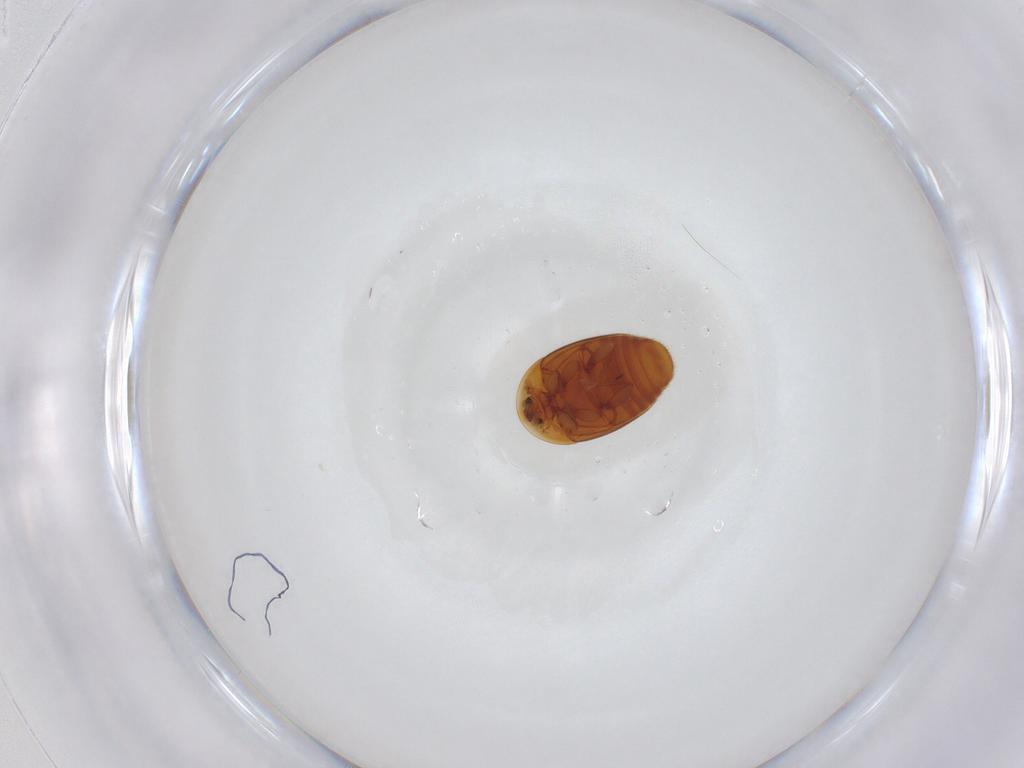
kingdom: Animalia
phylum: Arthropoda
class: Insecta
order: Coleoptera
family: Corylophidae
